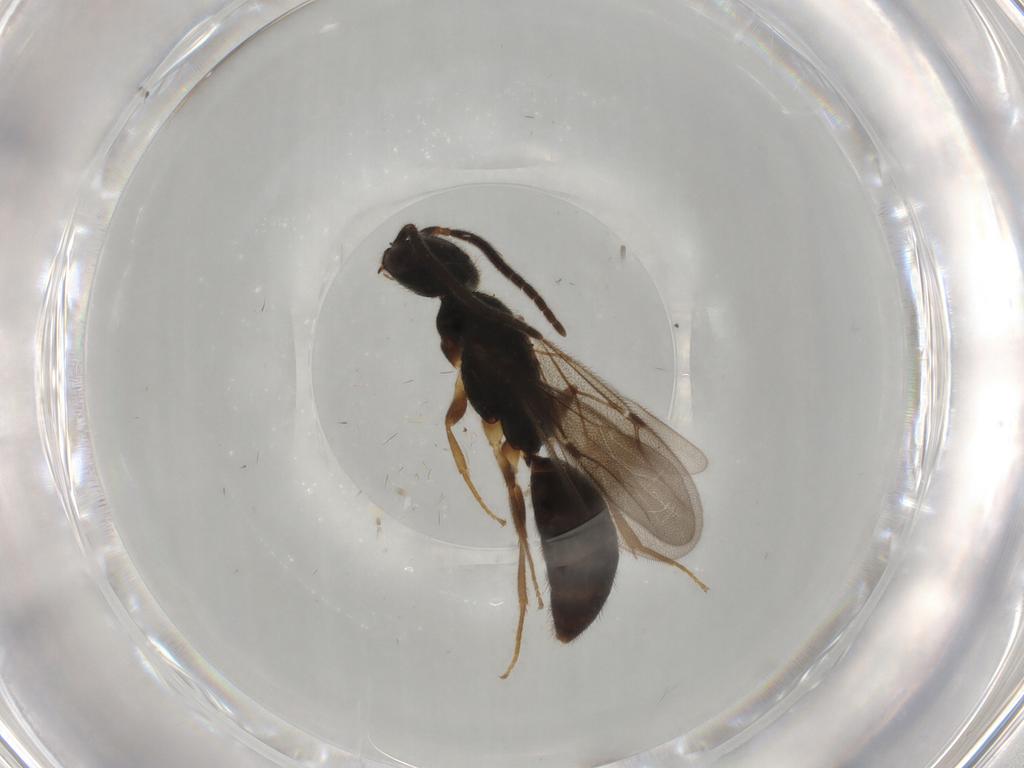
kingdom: Animalia
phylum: Arthropoda
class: Insecta
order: Hymenoptera
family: Bethylidae
